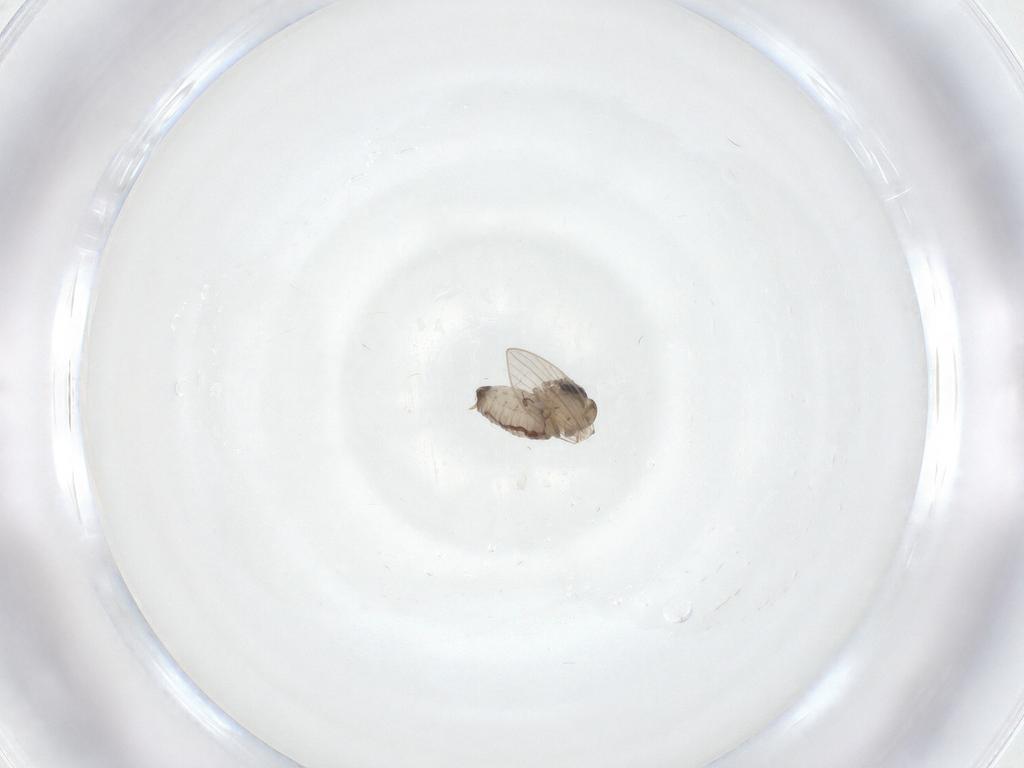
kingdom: Animalia
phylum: Arthropoda
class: Insecta
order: Diptera
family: Psychodidae
